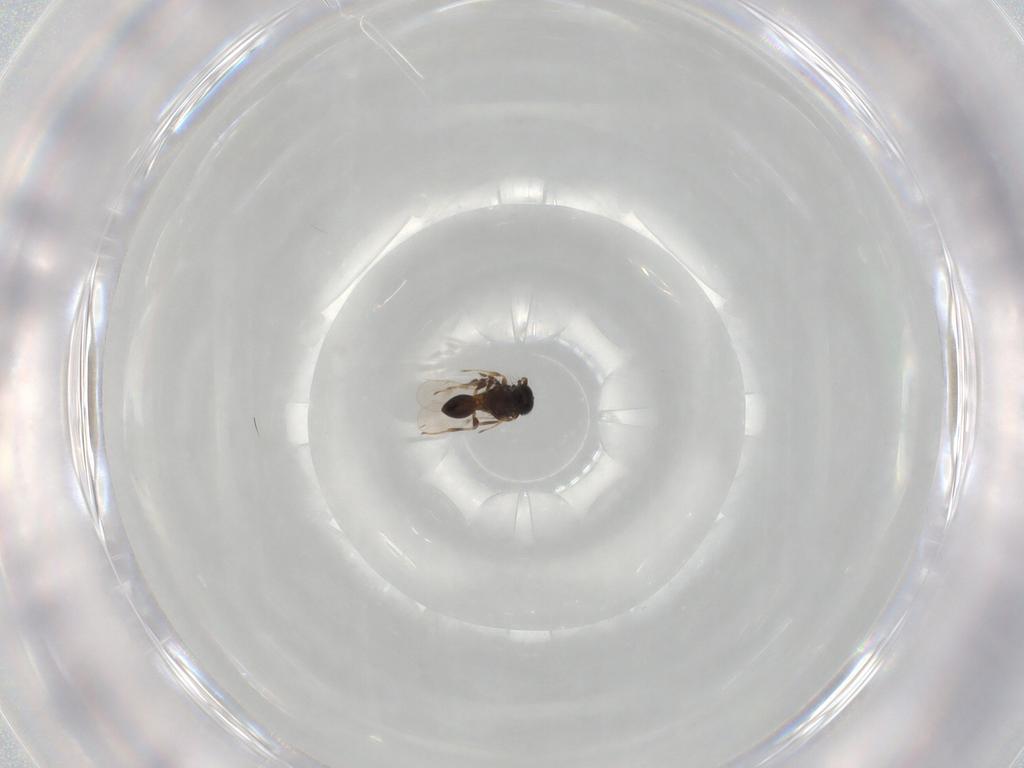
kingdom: Animalia
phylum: Arthropoda
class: Insecta
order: Hymenoptera
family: Platygastridae
